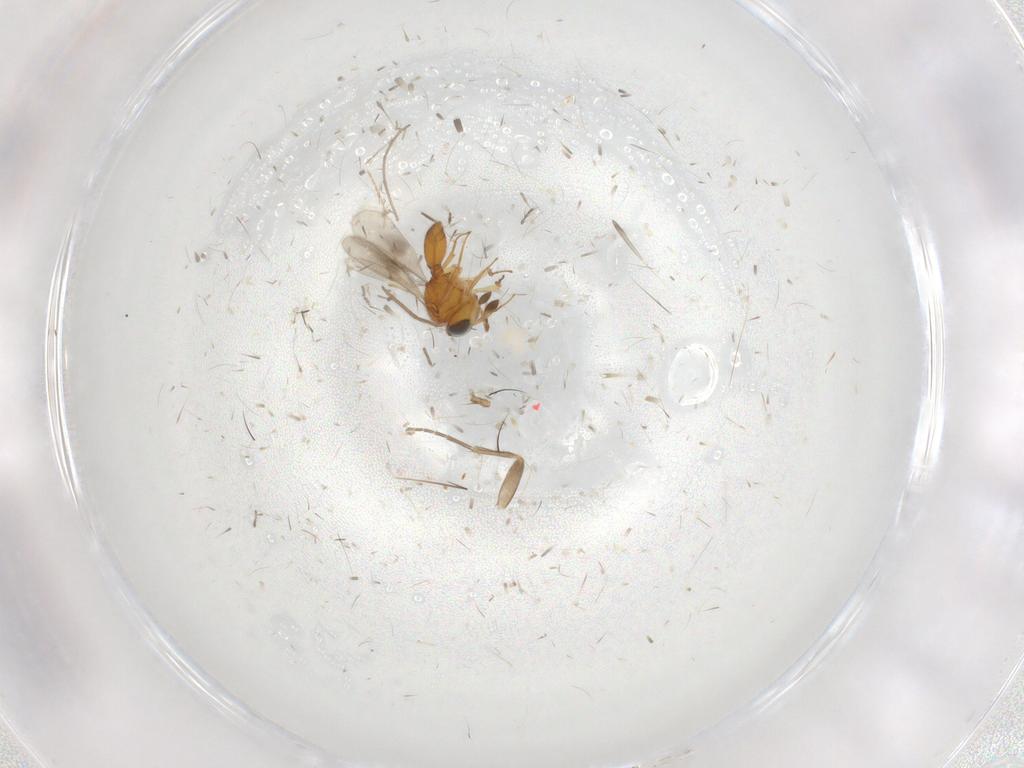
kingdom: Animalia
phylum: Arthropoda
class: Insecta
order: Hymenoptera
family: Scelionidae
